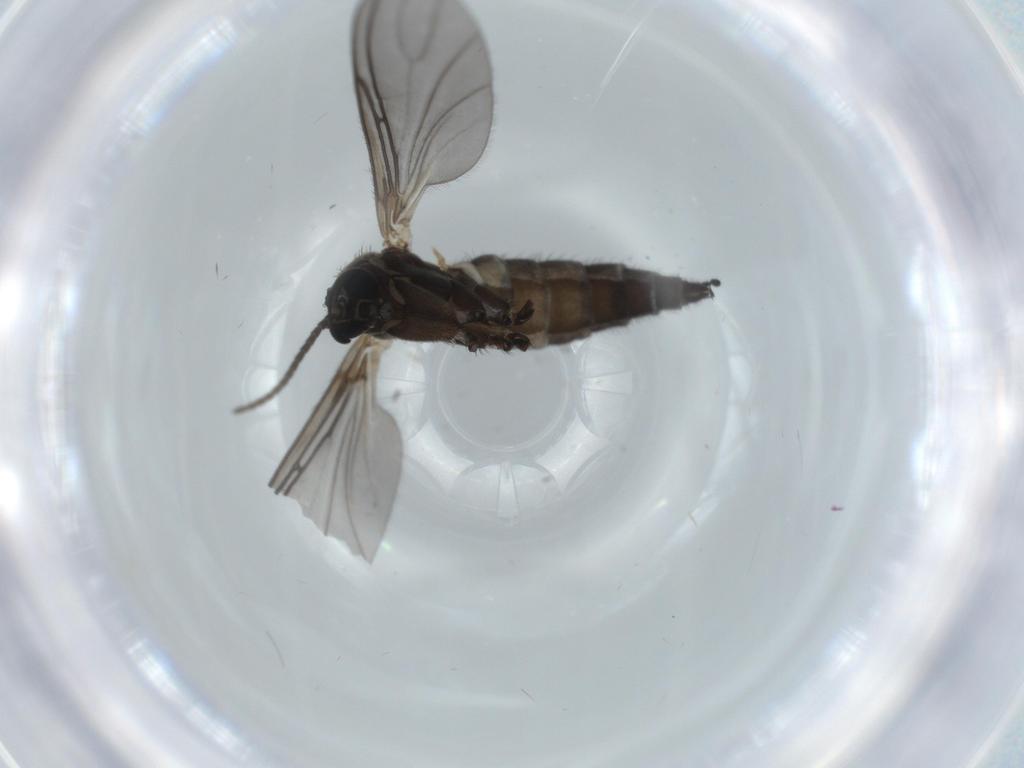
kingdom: Animalia
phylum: Arthropoda
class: Insecta
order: Diptera
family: Sciaridae
